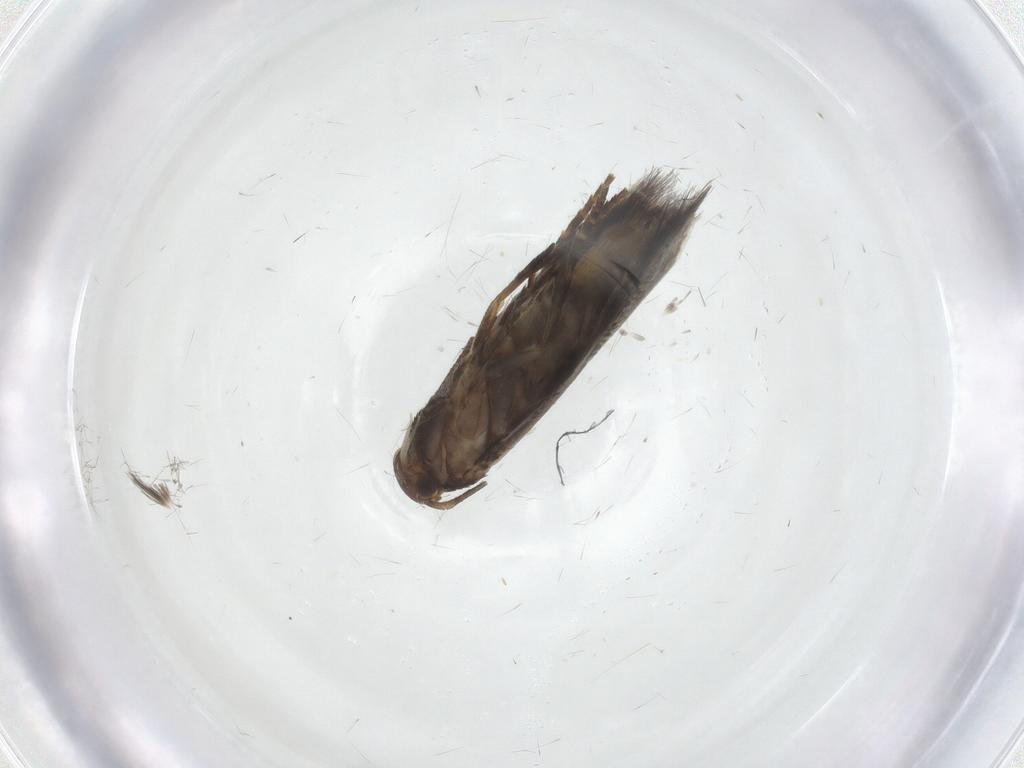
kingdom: Animalia
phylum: Arthropoda
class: Insecta
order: Lepidoptera
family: Elachistidae
